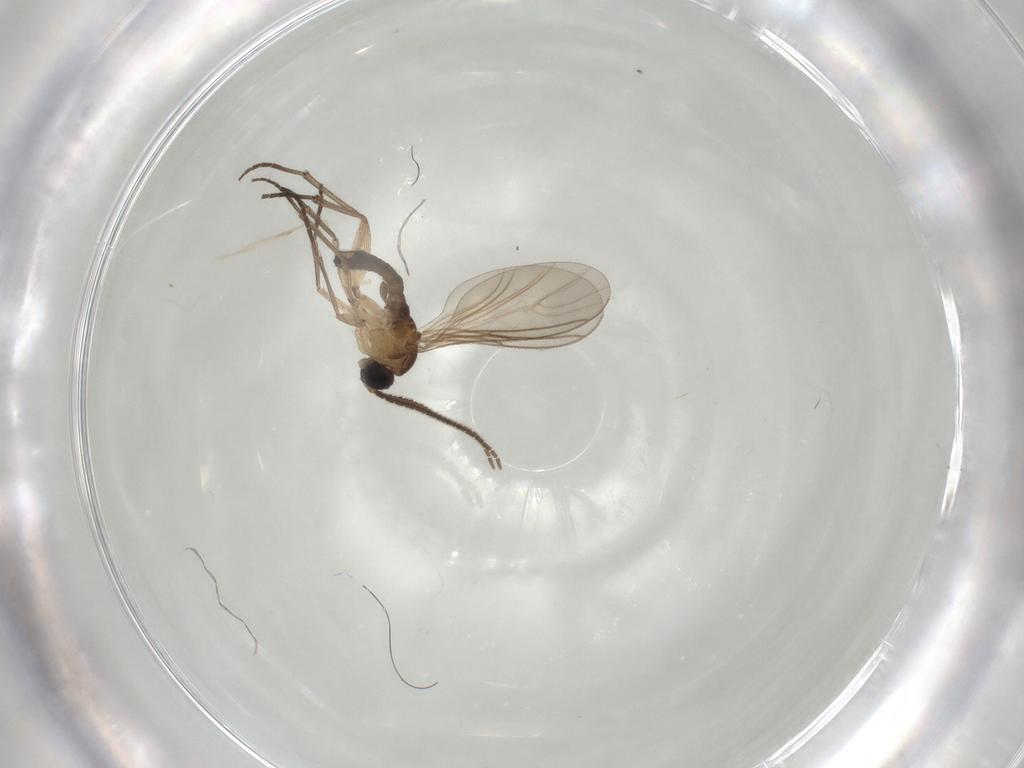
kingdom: Animalia
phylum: Arthropoda
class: Insecta
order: Diptera
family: Sciaridae
